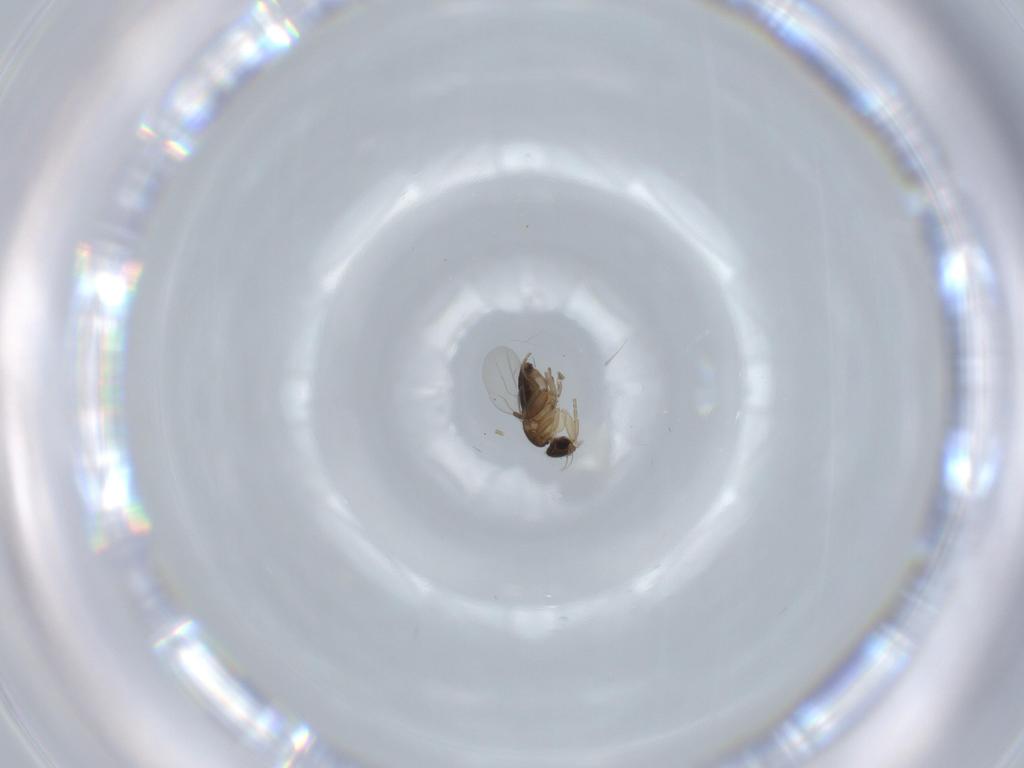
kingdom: Animalia
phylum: Arthropoda
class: Insecta
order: Diptera
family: Phoridae
